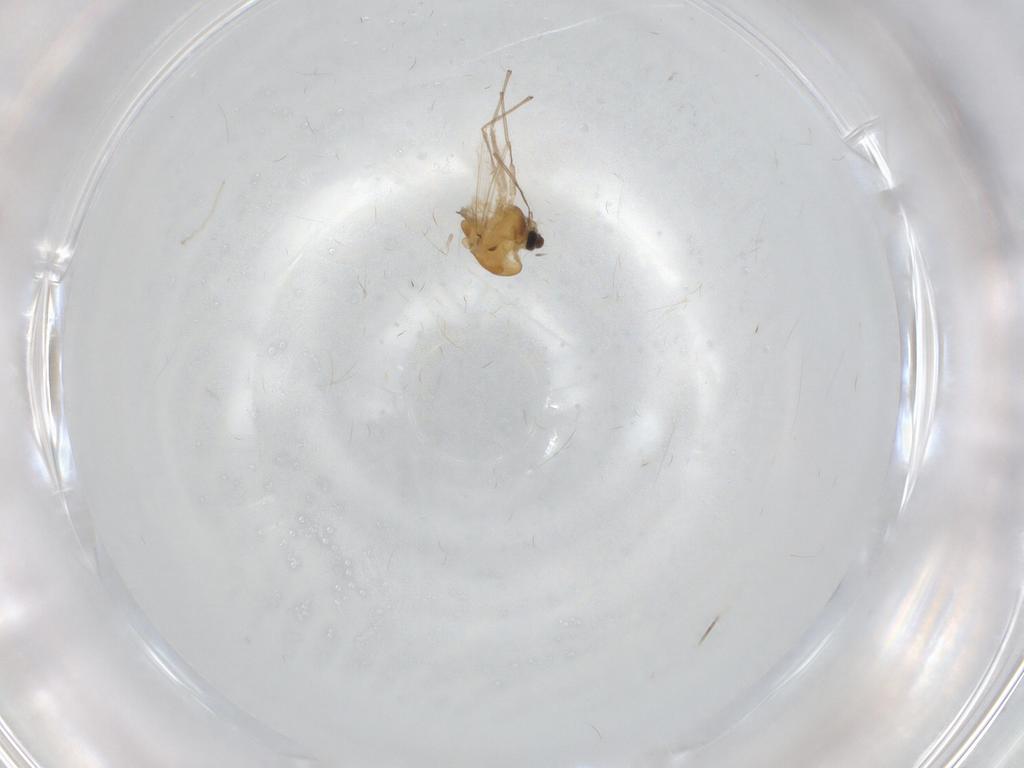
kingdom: Animalia
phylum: Arthropoda
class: Insecta
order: Diptera
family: Chironomidae
